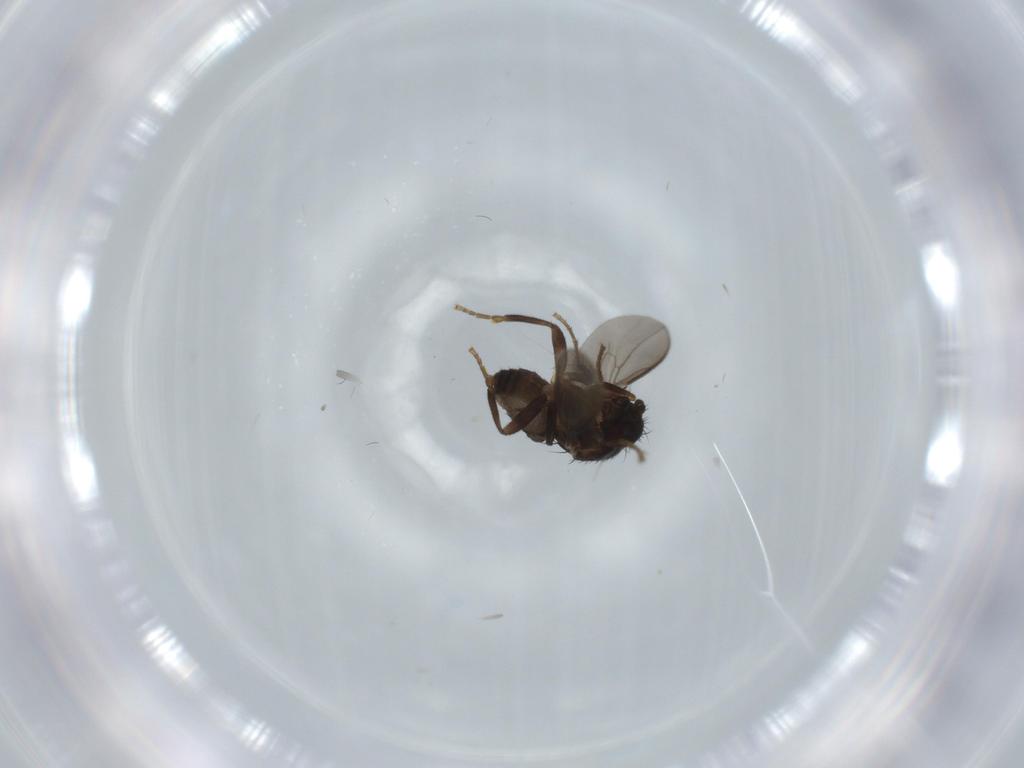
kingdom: Animalia
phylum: Arthropoda
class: Insecta
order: Diptera
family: Sphaeroceridae
